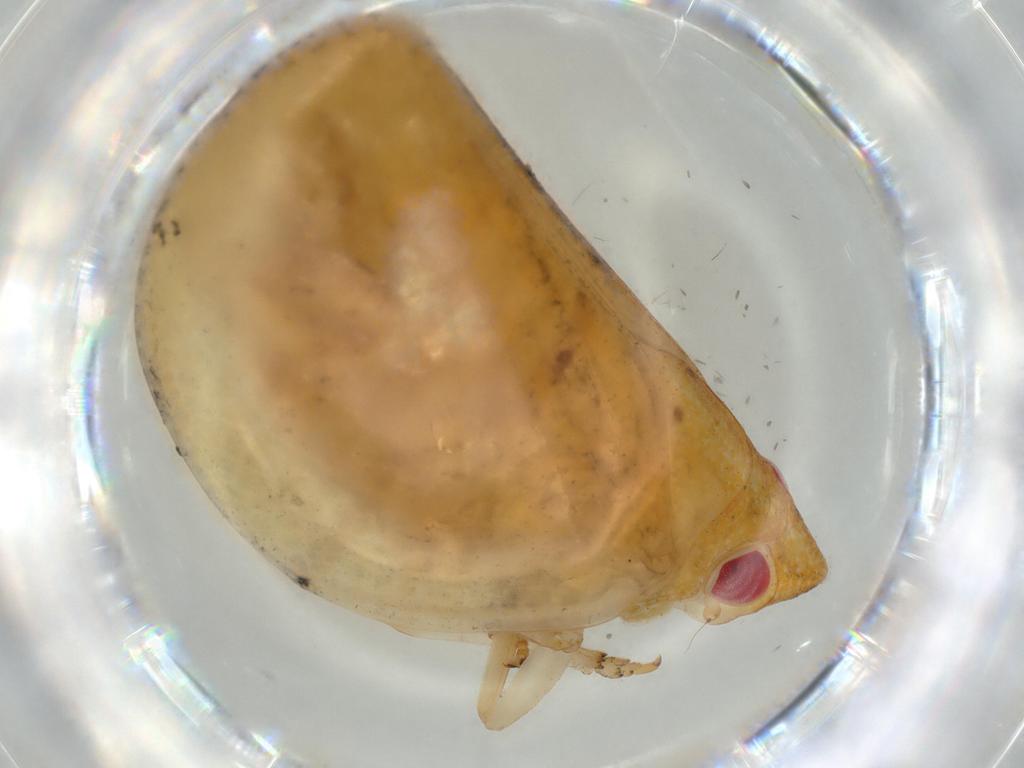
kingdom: Animalia
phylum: Arthropoda
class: Insecta
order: Hemiptera
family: Acanaloniidae
